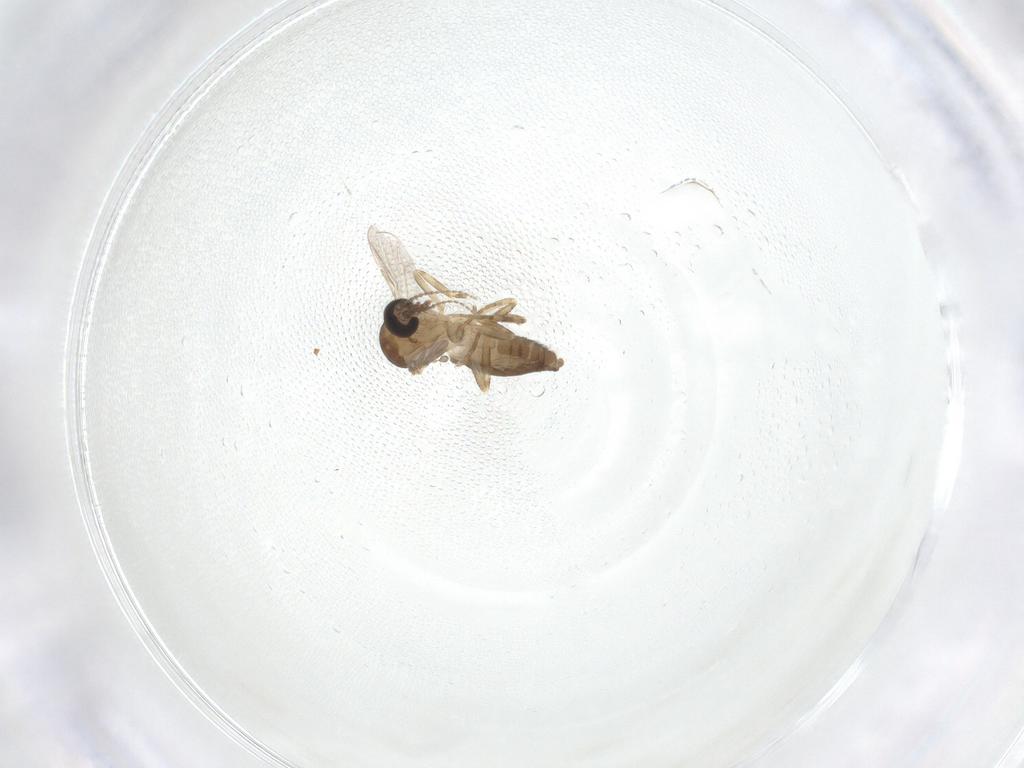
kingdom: Animalia
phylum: Arthropoda
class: Insecta
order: Diptera
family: Ceratopogonidae
